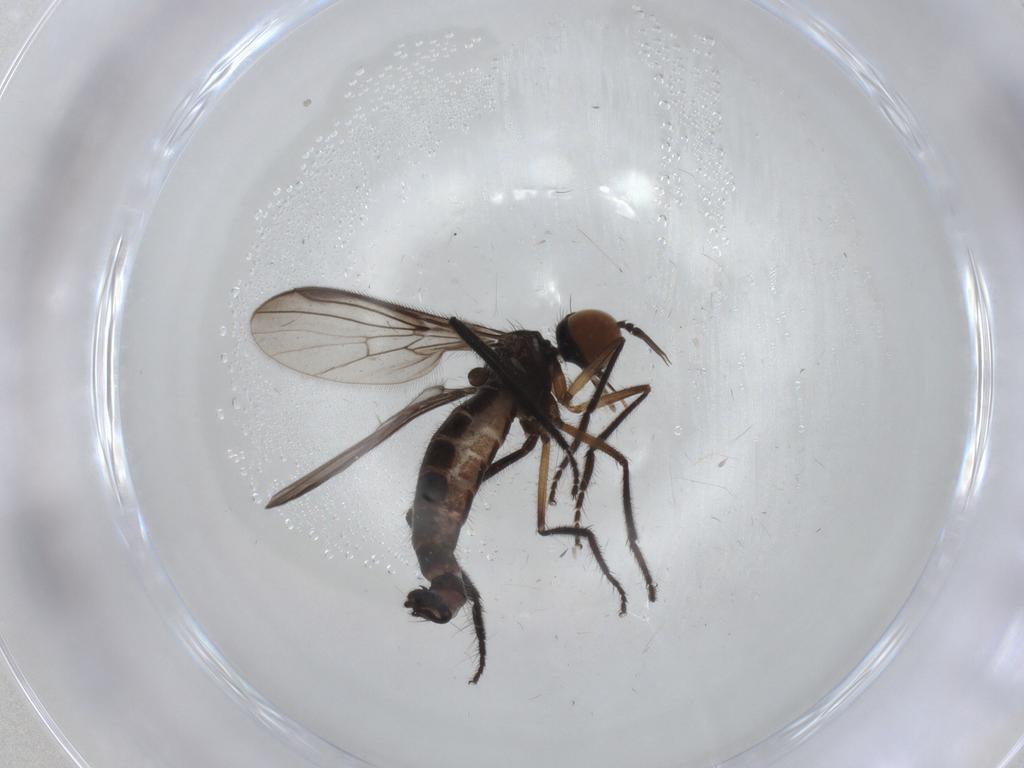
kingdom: Animalia
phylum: Arthropoda
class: Insecta
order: Diptera
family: Empididae
